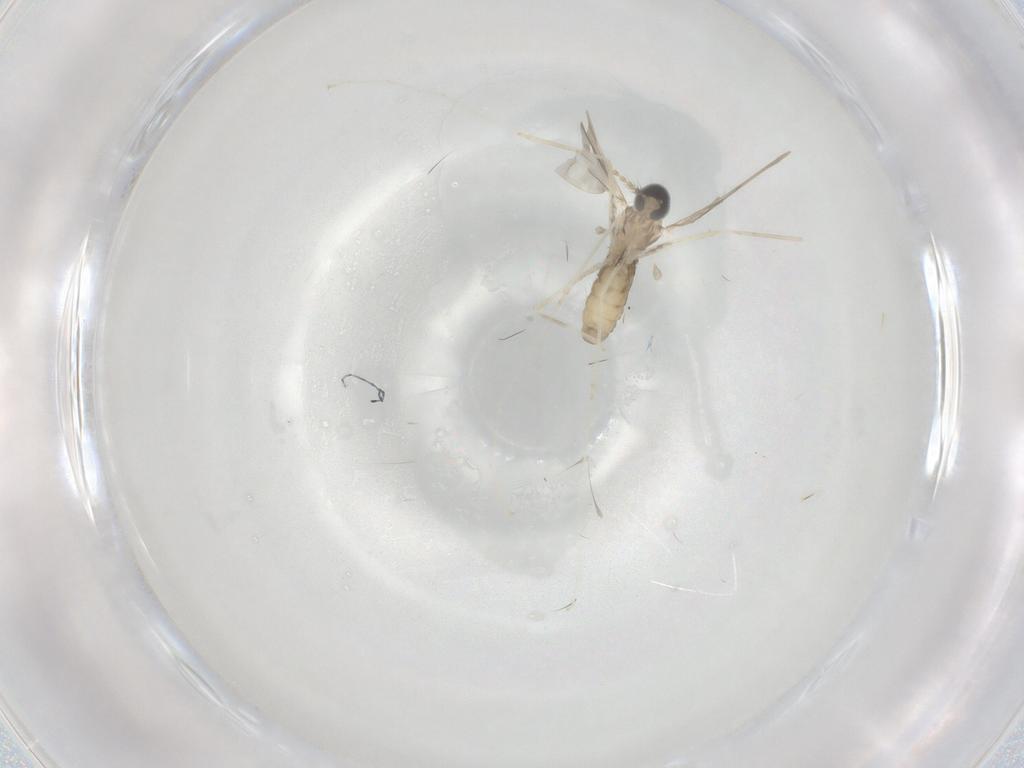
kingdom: Animalia
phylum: Arthropoda
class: Insecta
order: Diptera
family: Cecidomyiidae
